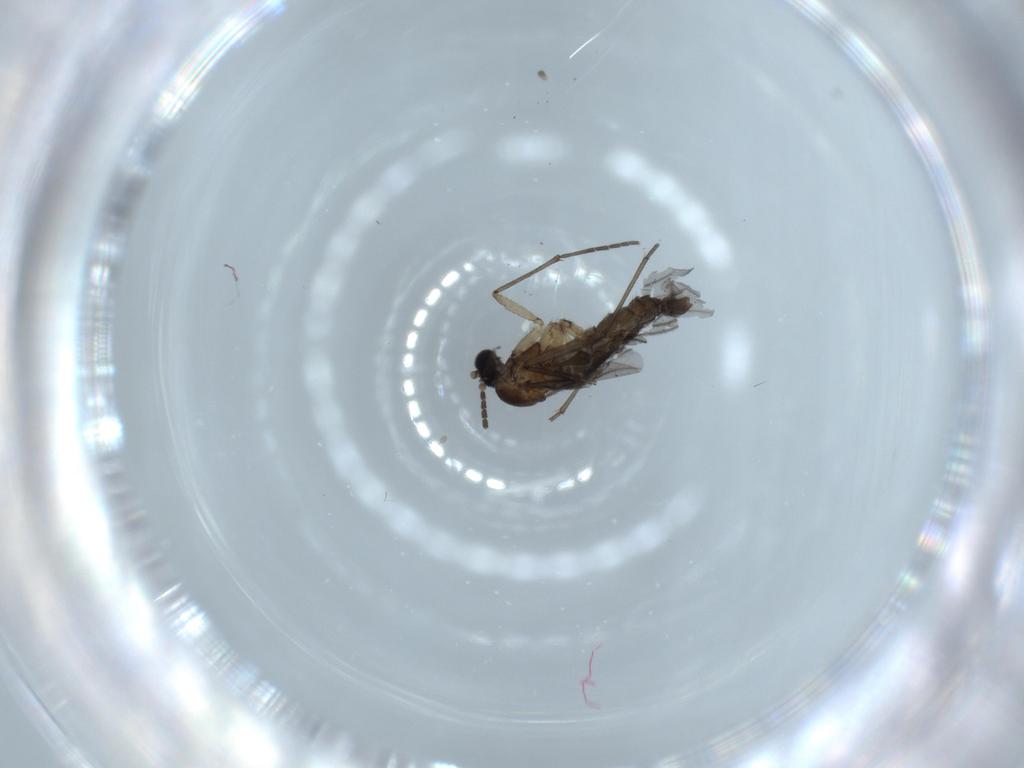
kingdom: Animalia
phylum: Arthropoda
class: Insecta
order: Diptera
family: Sciaridae
